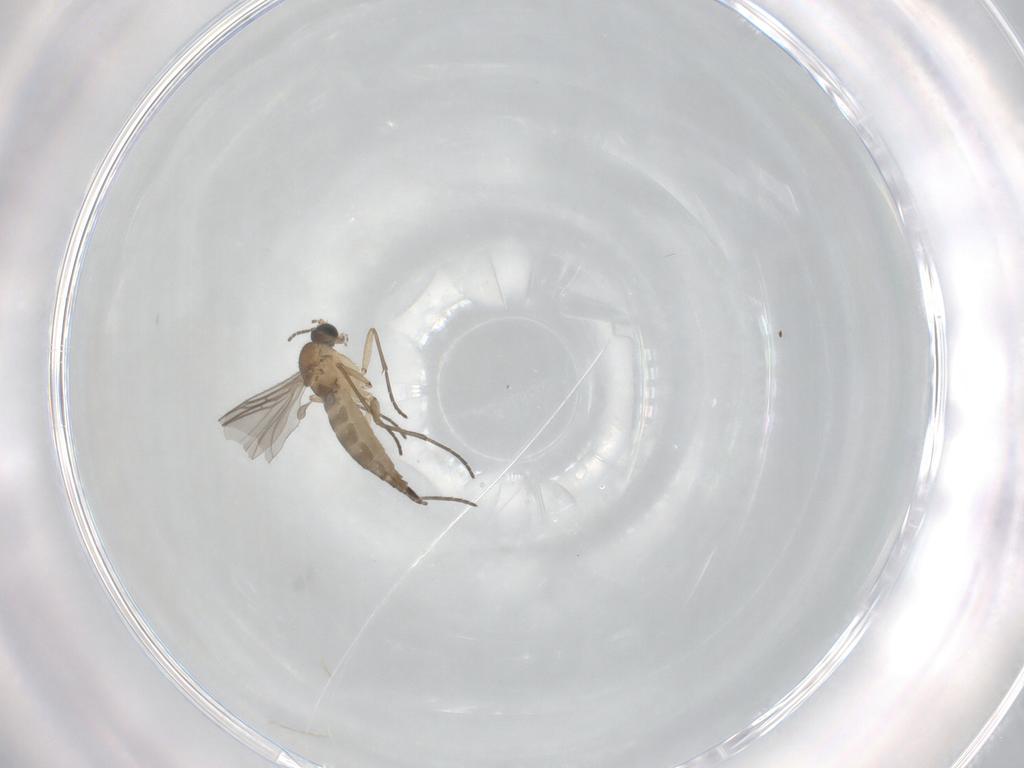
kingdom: Animalia
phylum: Arthropoda
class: Insecta
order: Diptera
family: Sciaridae
